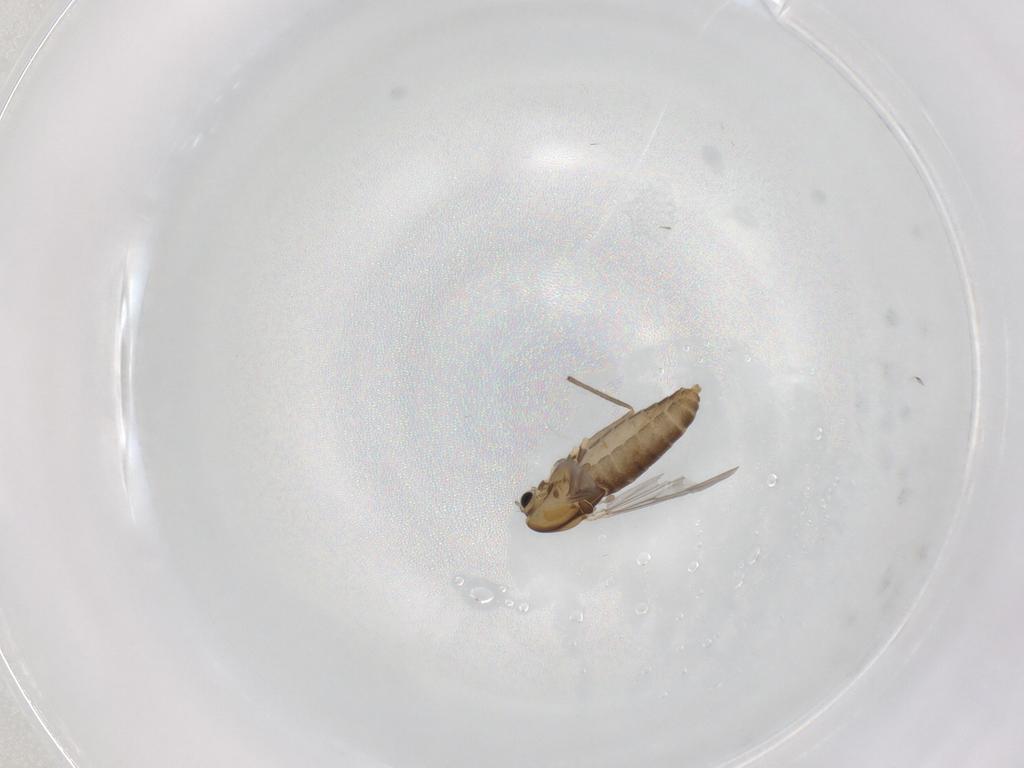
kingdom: Animalia
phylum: Arthropoda
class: Insecta
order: Diptera
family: Chironomidae
